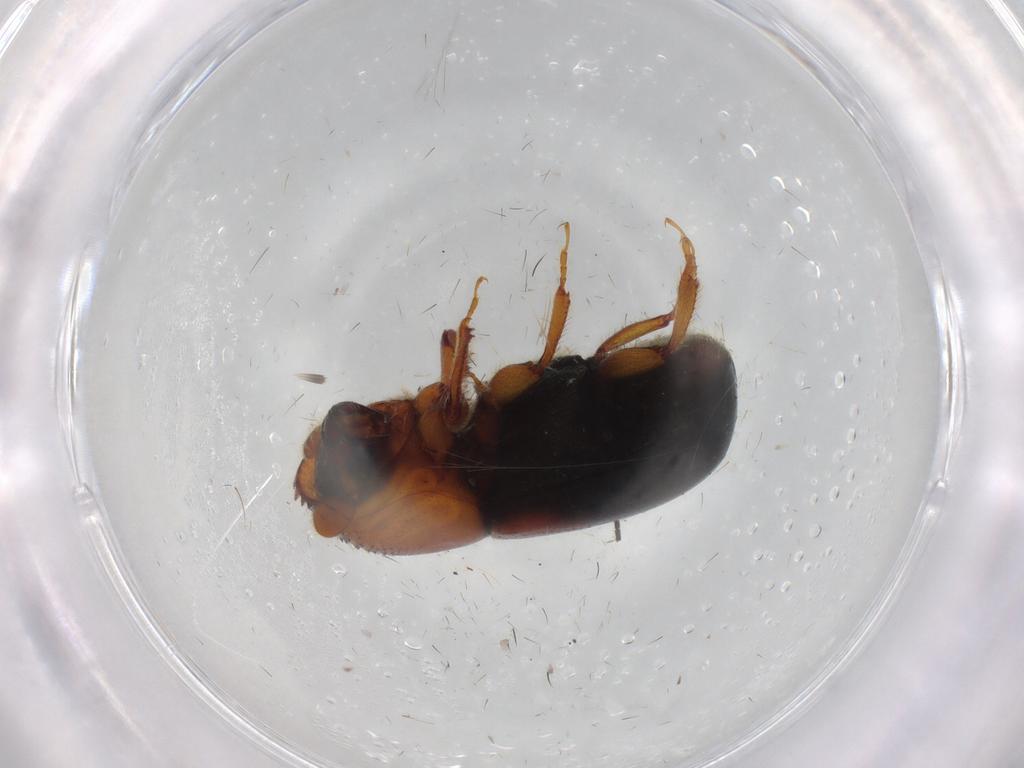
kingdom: Animalia
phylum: Arthropoda
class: Insecta
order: Coleoptera
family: Curculionidae
